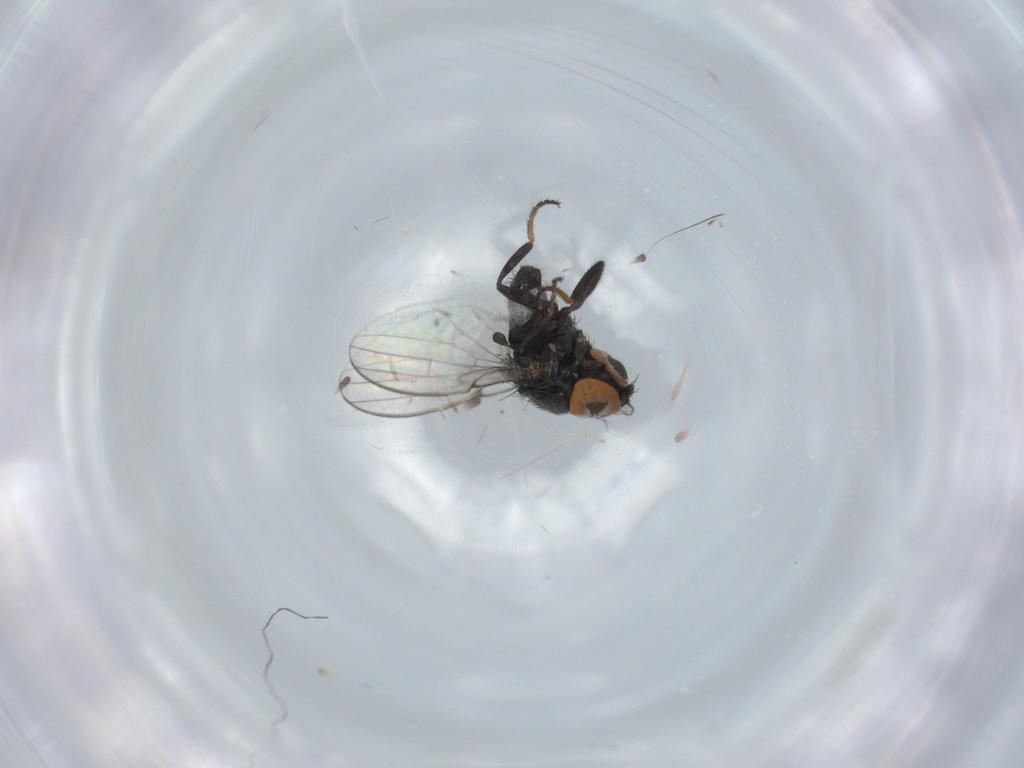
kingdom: Animalia
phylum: Arthropoda
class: Insecta
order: Diptera
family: Milichiidae
